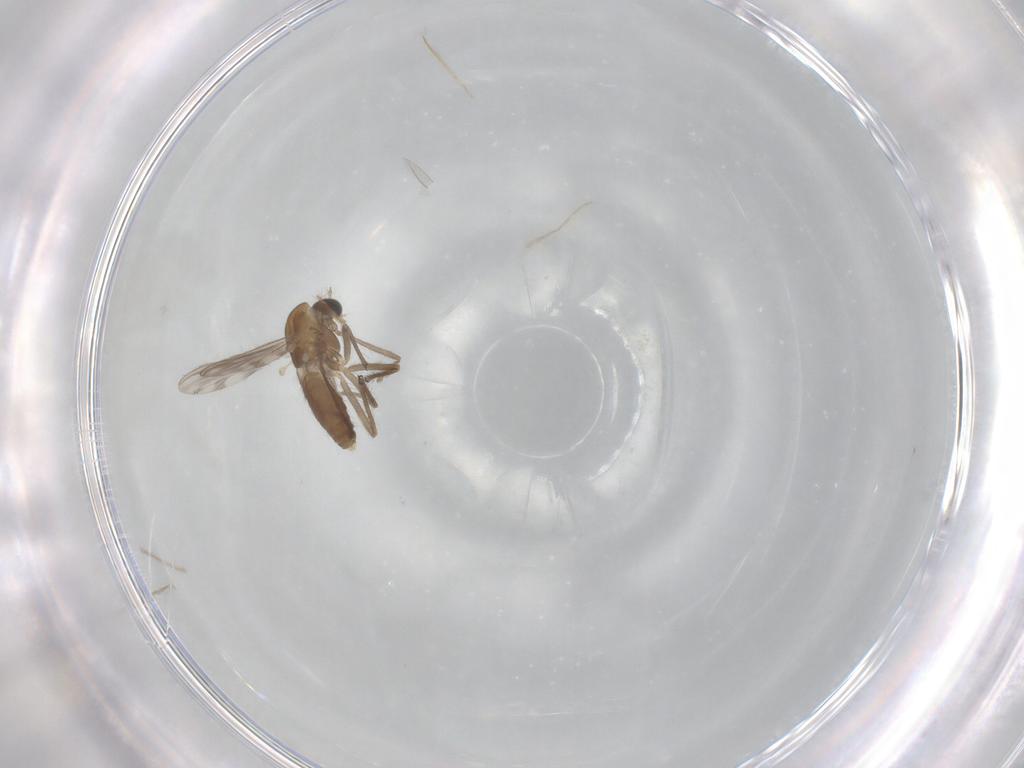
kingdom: Animalia
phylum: Arthropoda
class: Insecta
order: Diptera
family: Chironomidae
